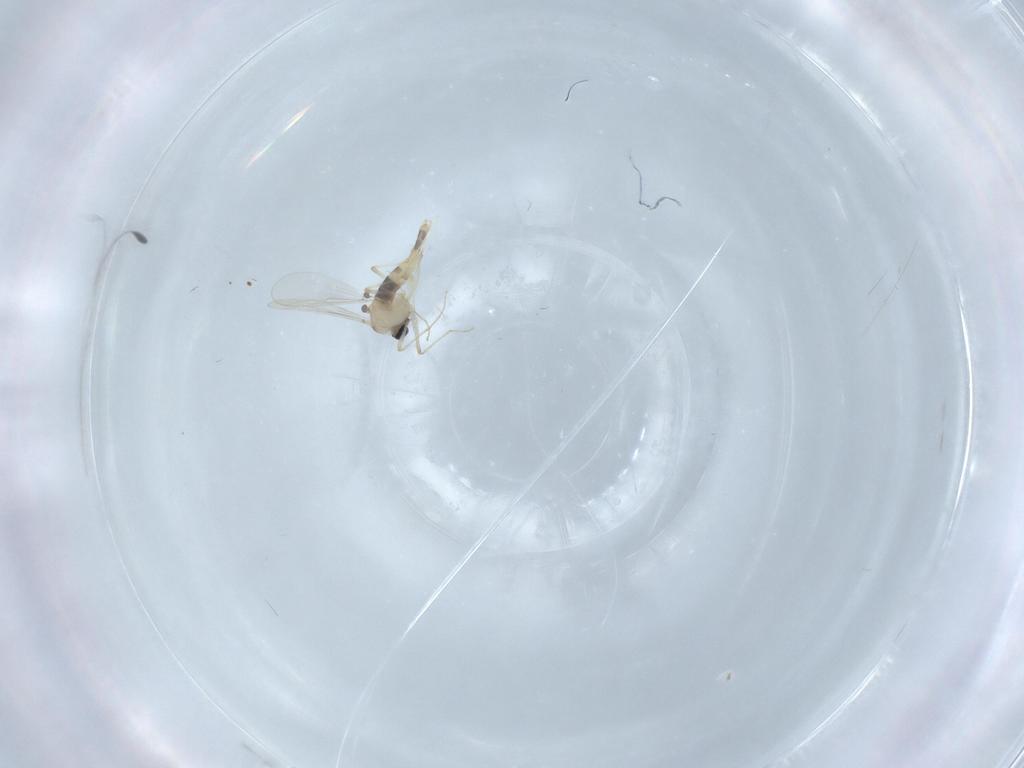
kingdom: Animalia
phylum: Arthropoda
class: Insecta
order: Diptera
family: Chironomidae
